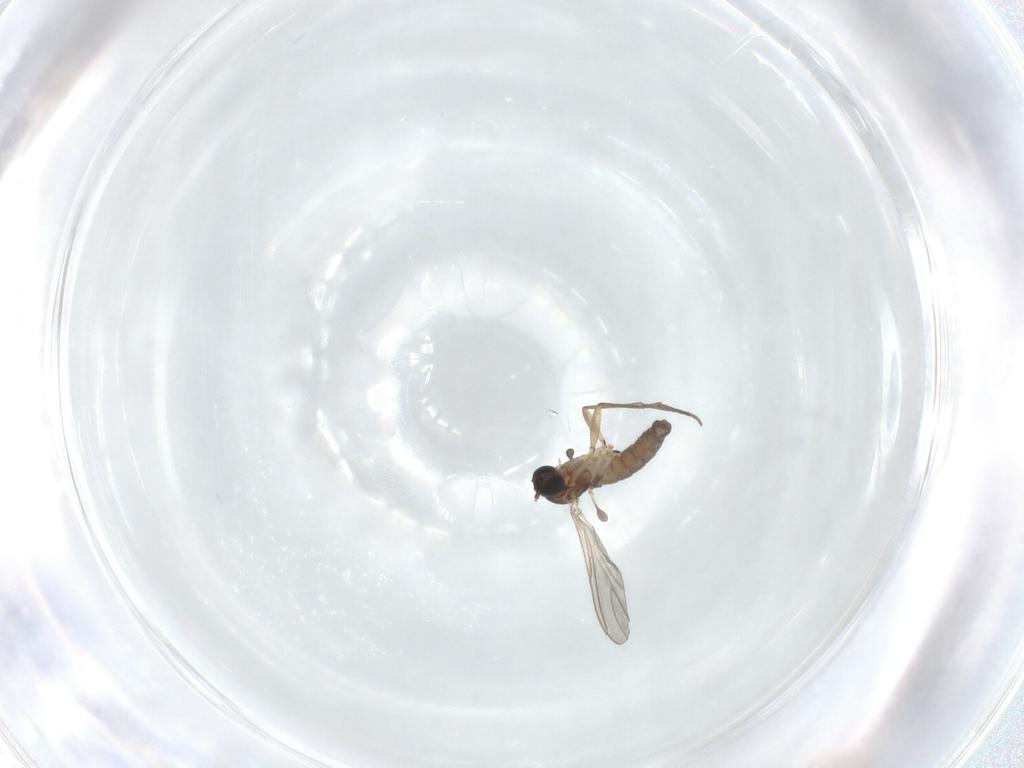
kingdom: Animalia
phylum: Arthropoda
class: Insecta
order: Diptera
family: Sciaridae
